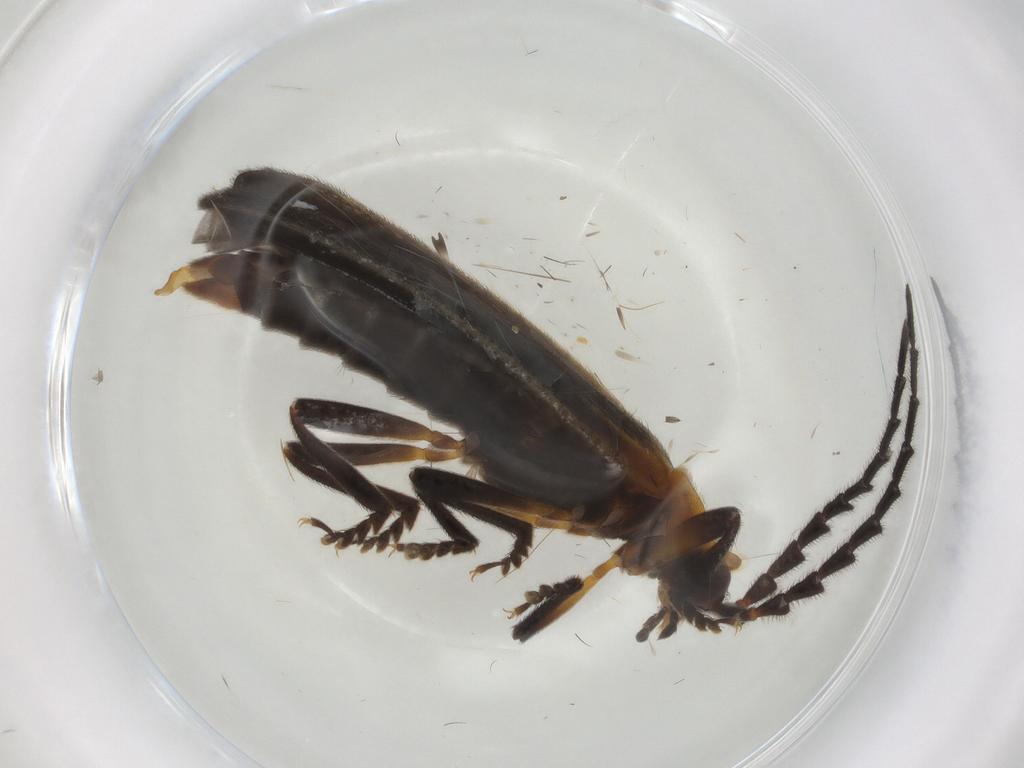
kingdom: Animalia
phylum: Arthropoda
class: Insecta
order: Coleoptera
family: Lycidae
